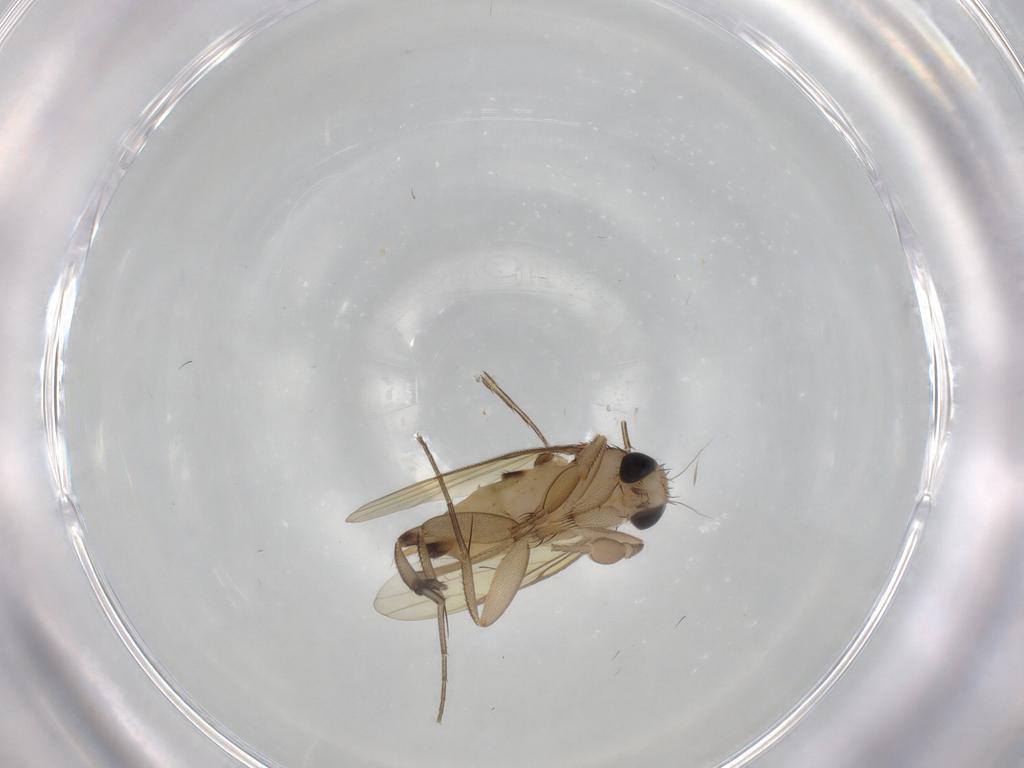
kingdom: Animalia
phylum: Arthropoda
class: Insecta
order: Diptera
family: Phoridae
